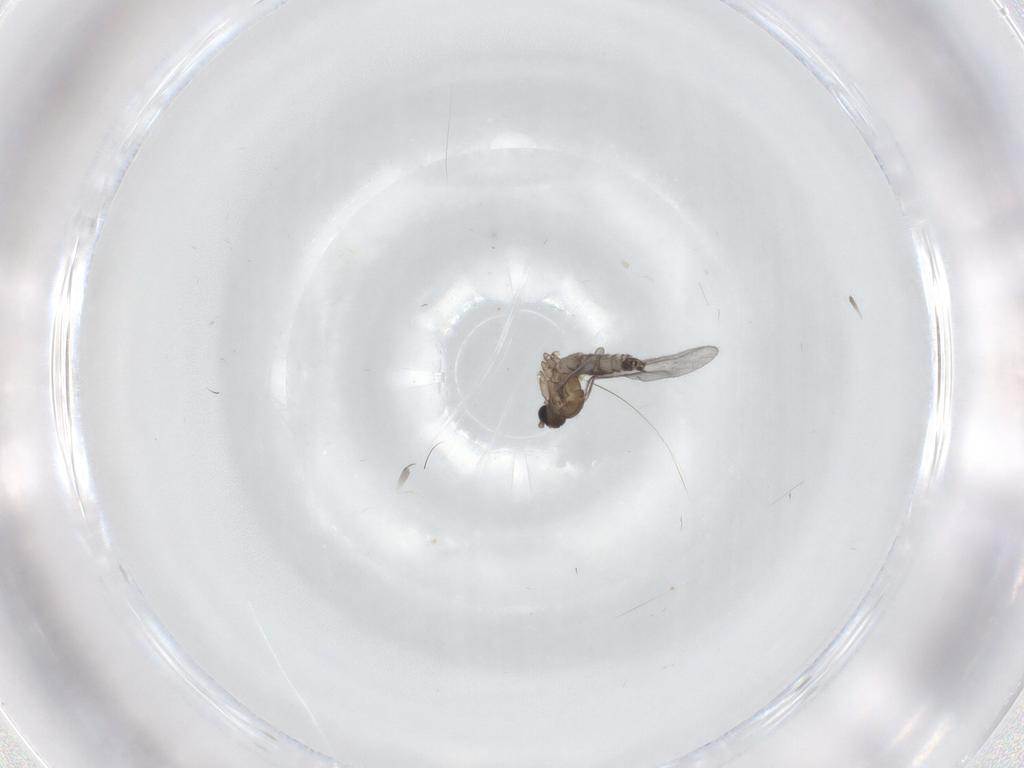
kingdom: Animalia
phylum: Arthropoda
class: Insecta
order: Diptera
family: Sciaridae
